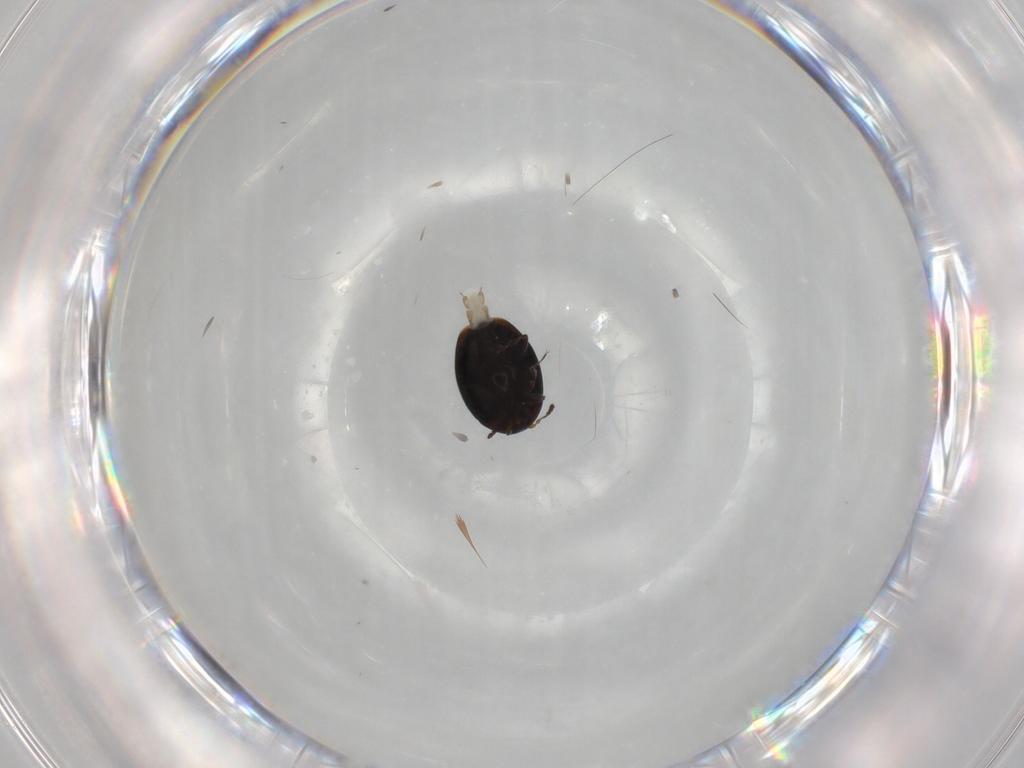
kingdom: Animalia
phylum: Arthropoda
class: Insecta
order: Coleoptera
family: Corylophidae
